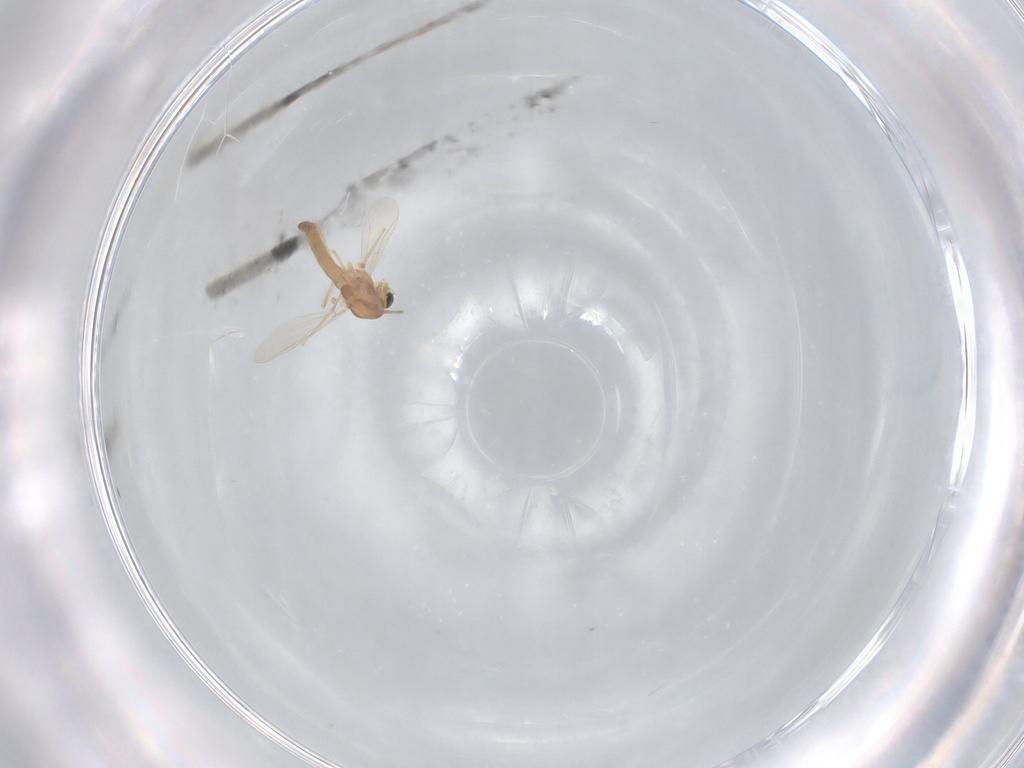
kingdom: Animalia
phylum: Arthropoda
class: Insecta
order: Diptera
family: Chironomidae
